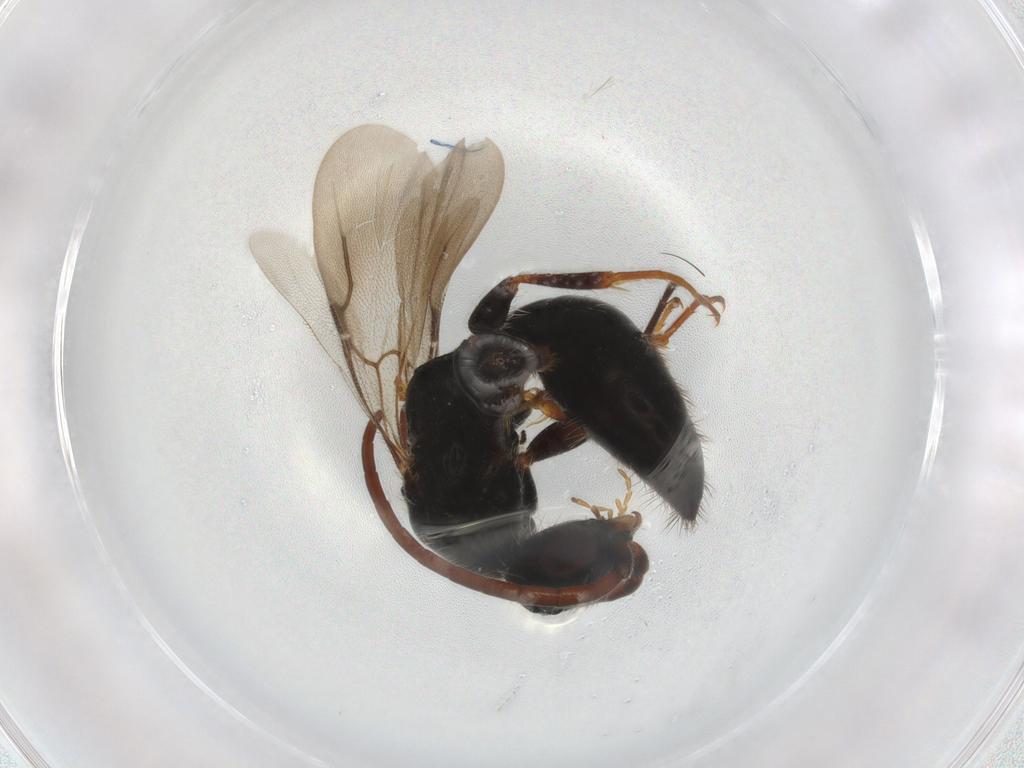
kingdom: Animalia
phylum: Arthropoda
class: Insecta
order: Hymenoptera
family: Bethylidae
